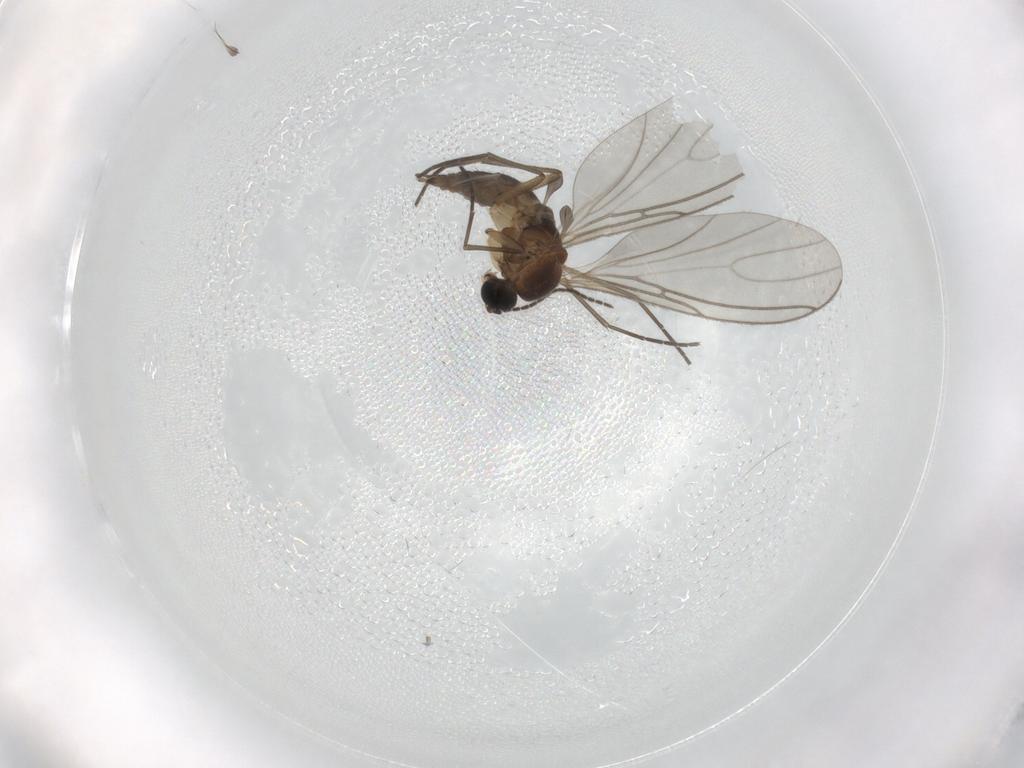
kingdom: Animalia
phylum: Arthropoda
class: Insecta
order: Diptera
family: Sciaridae
